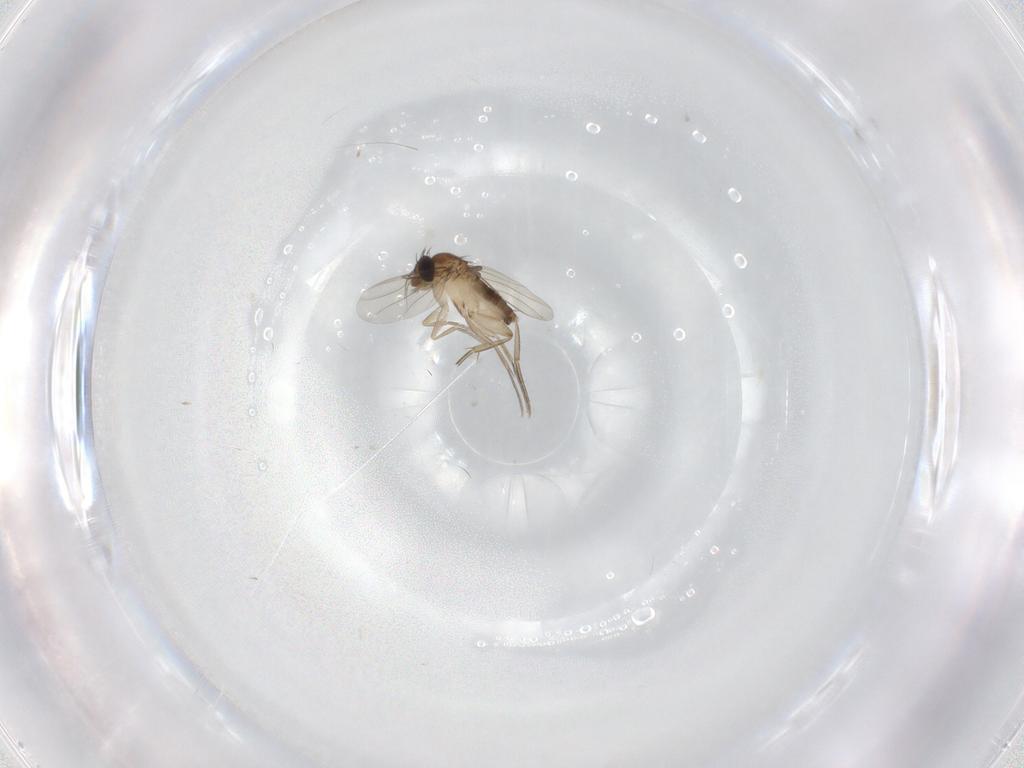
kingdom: Animalia
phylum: Arthropoda
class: Insecta
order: Diptera
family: Phoridae
